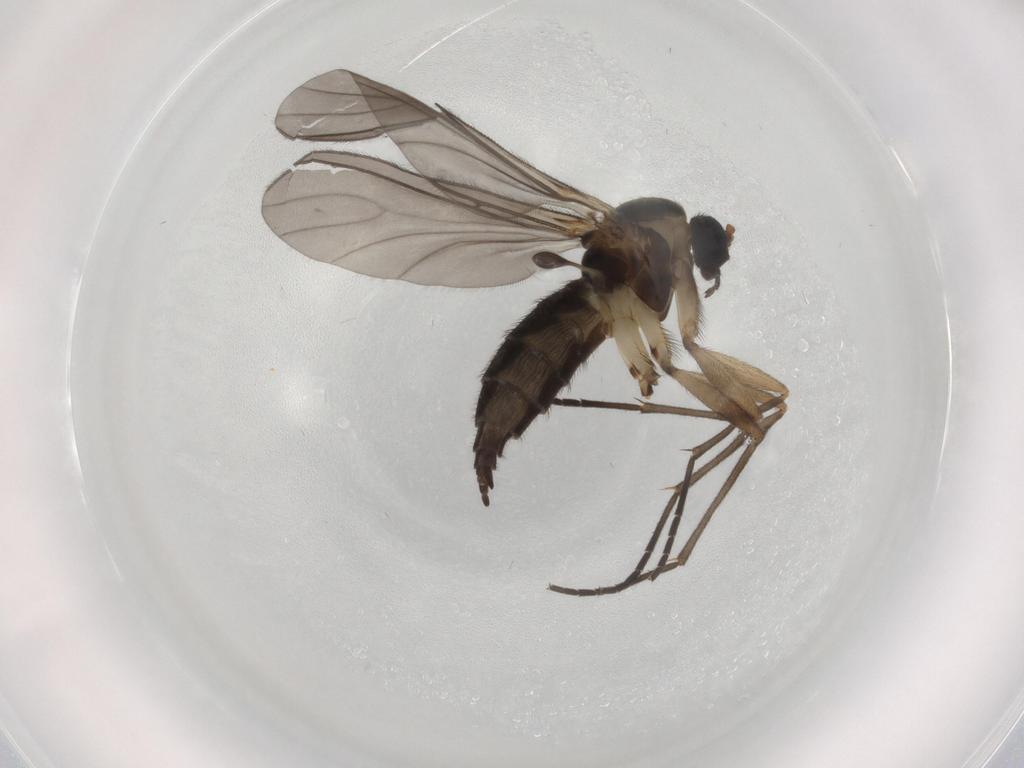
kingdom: Animalia
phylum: Arthropoda
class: Insecta
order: Diptera
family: Sciaridae
